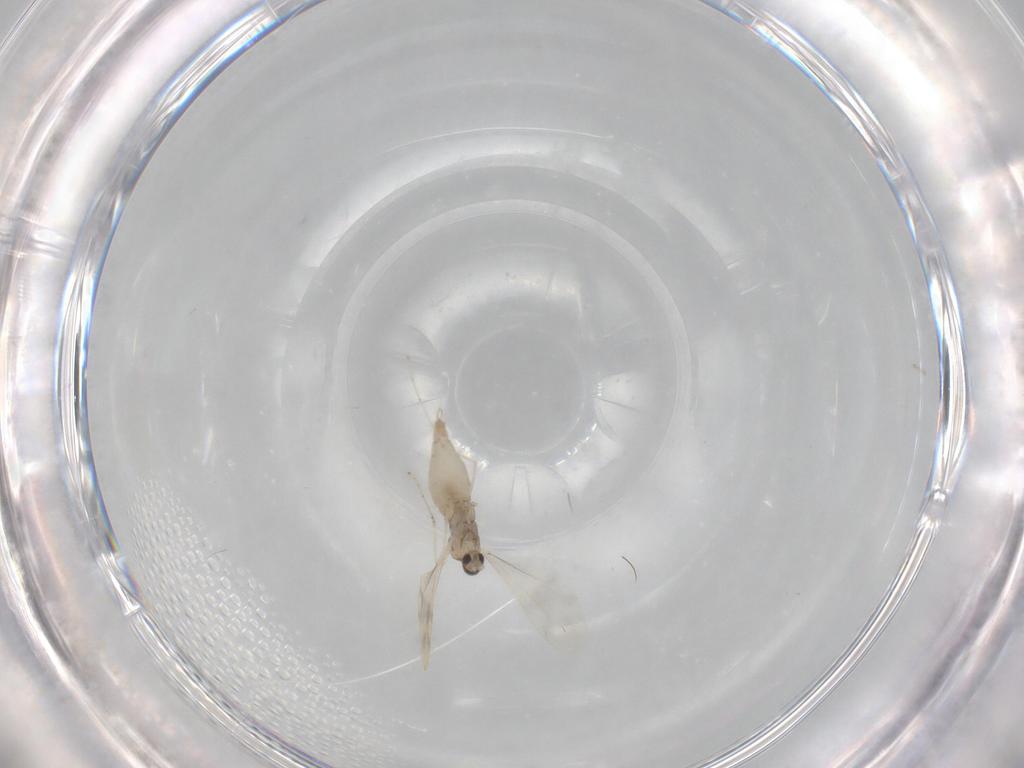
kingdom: Animalia
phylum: Arthropoda
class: Insecta
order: Diptera
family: Cecidomyiidae
